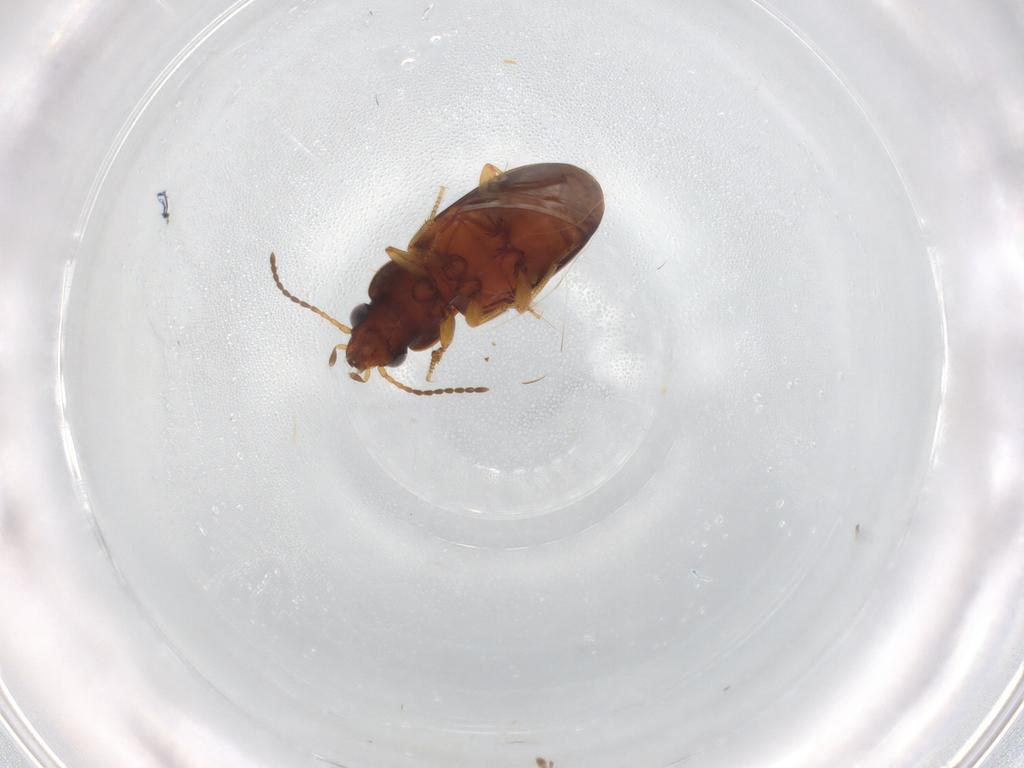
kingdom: Animalia
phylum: Arthropoda
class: Insecta
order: Coleoptera
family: Carabidae
